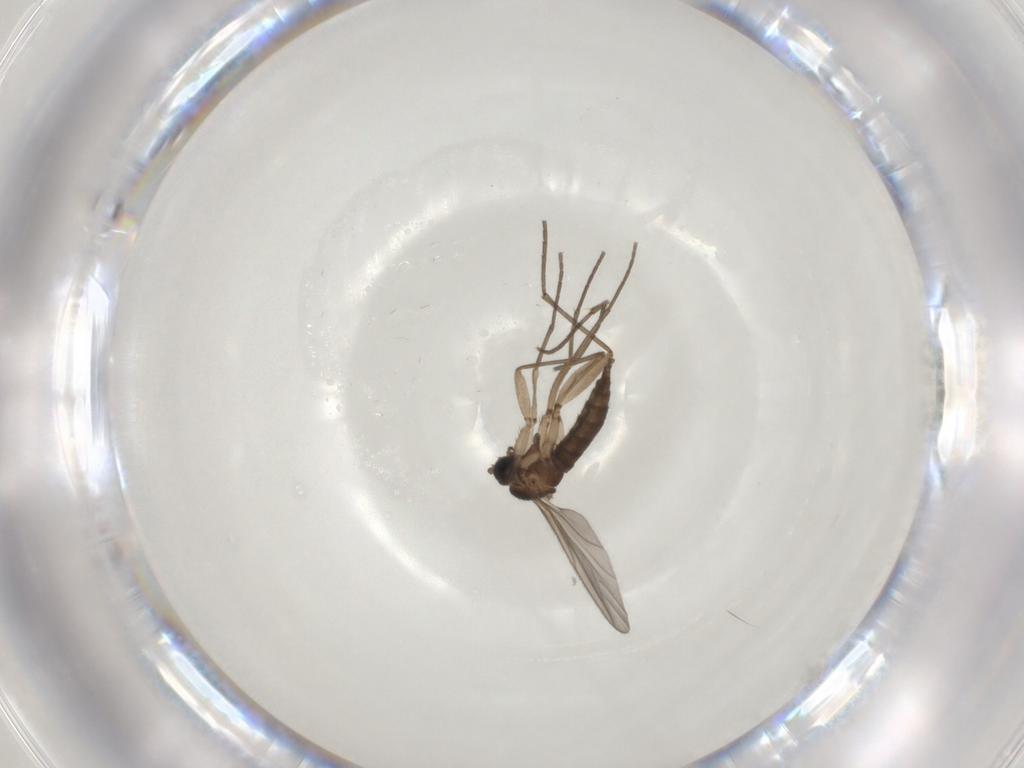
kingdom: Animalia
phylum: Arthropoda
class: Insecta
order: Diptera
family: Sciaridae
